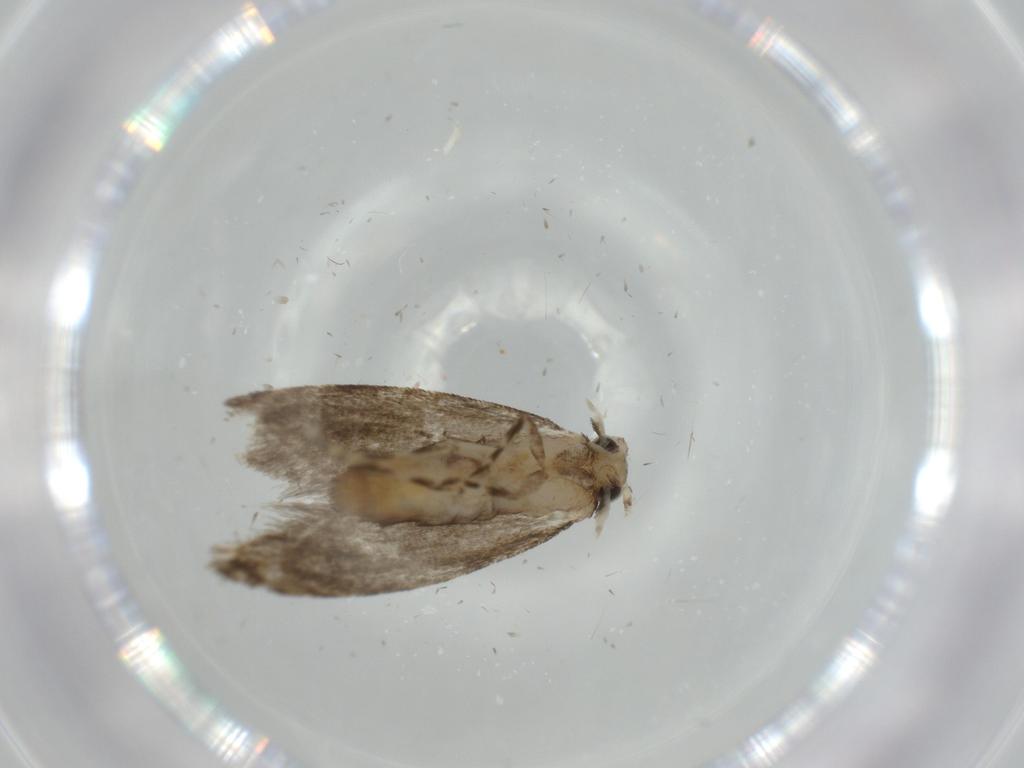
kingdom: Animalia
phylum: Arthropoda
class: Insecta
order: Lepidoptera
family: Tineidae
